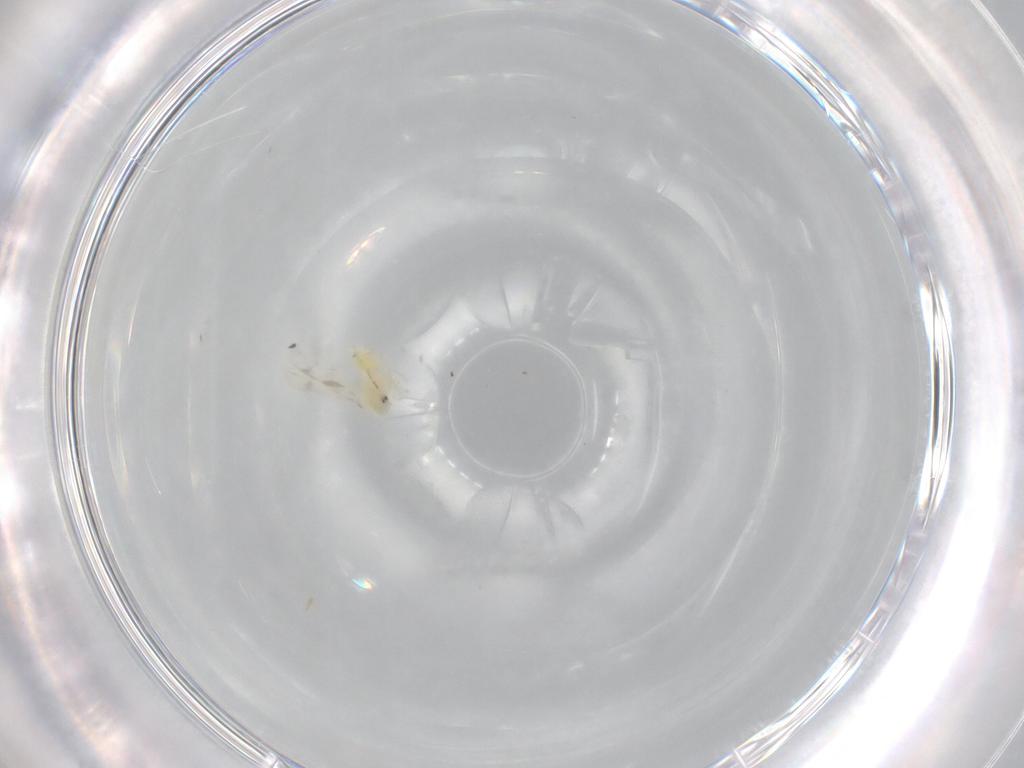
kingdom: Animalia
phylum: Arthropoda
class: Insecta
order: Hemiptera
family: Aleyrodidae
